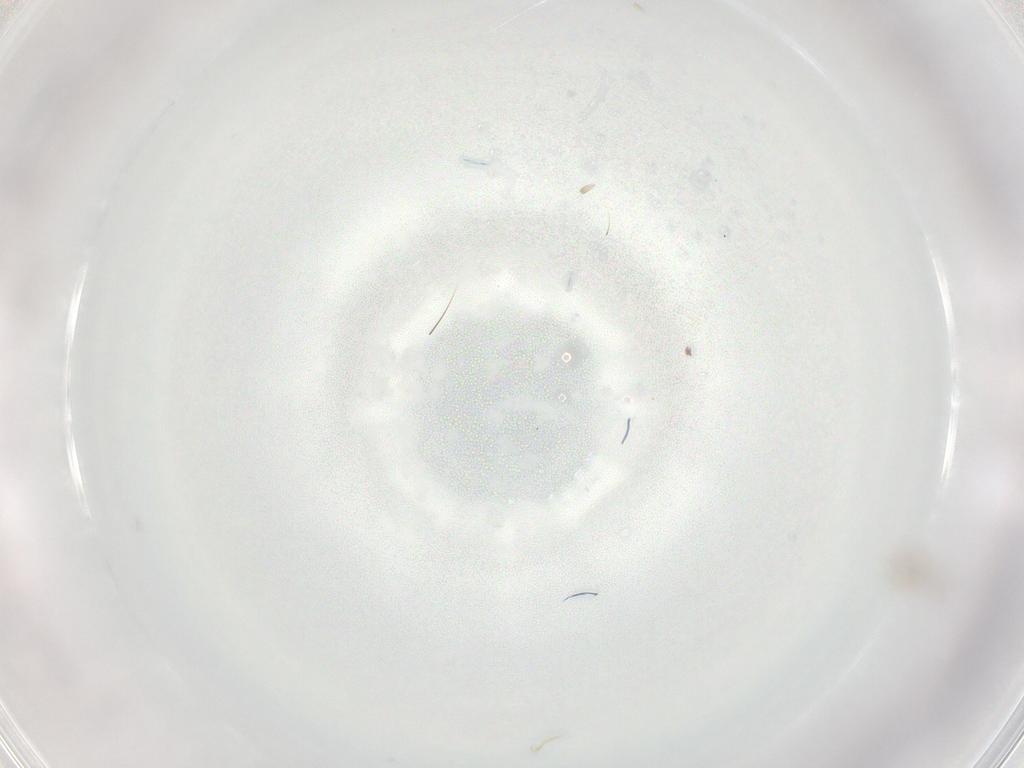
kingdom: Animalia
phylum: Arthropoda
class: Insecta
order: Hymenoptera
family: Trichogrammatidae
